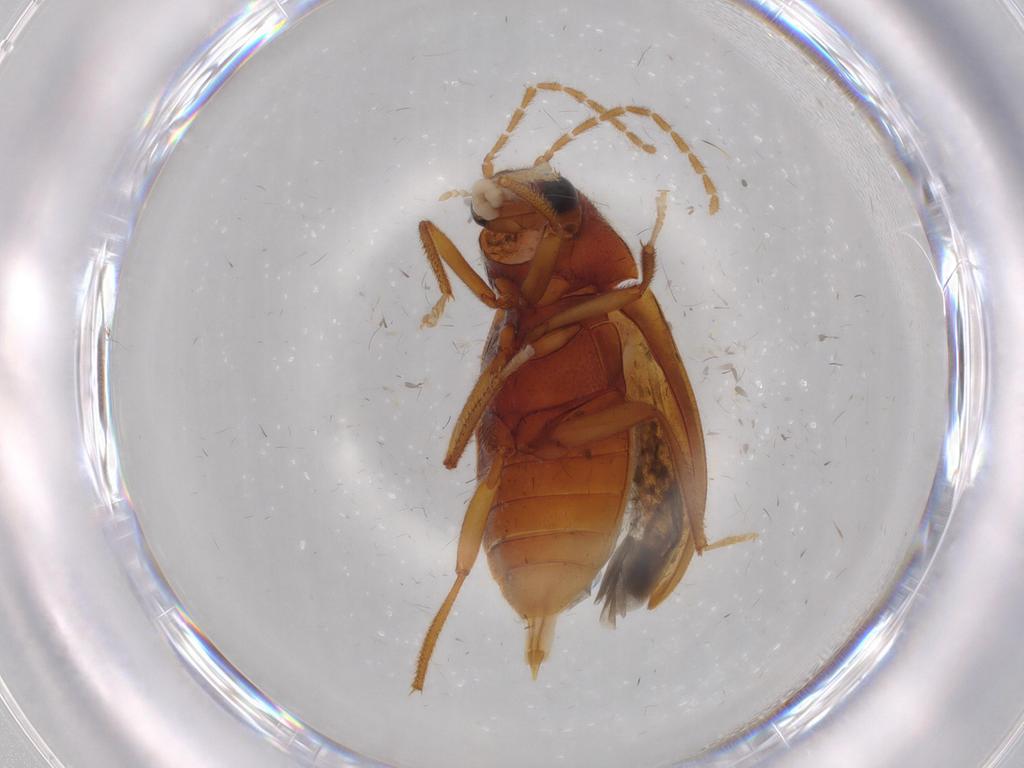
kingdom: Animalia
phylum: Arthropoda
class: Insecta
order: Coleoptera
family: Ptilodactylidae
